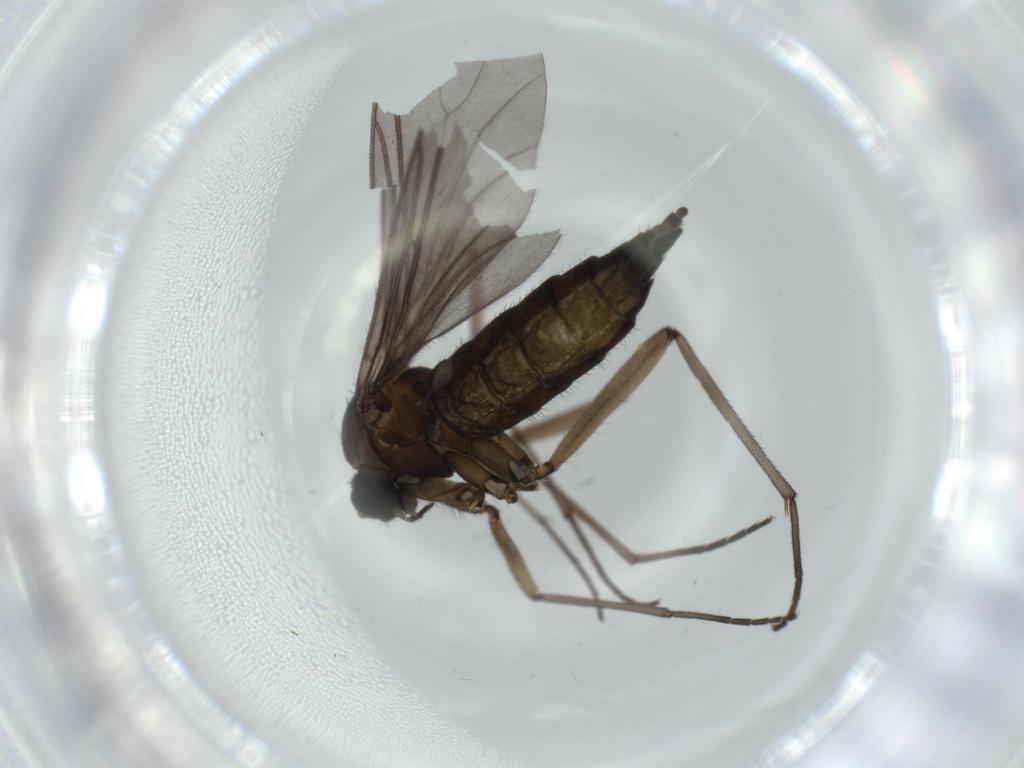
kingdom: Animalia
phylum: Arthropoda
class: Insecta
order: Diptera
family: Sciaridae
